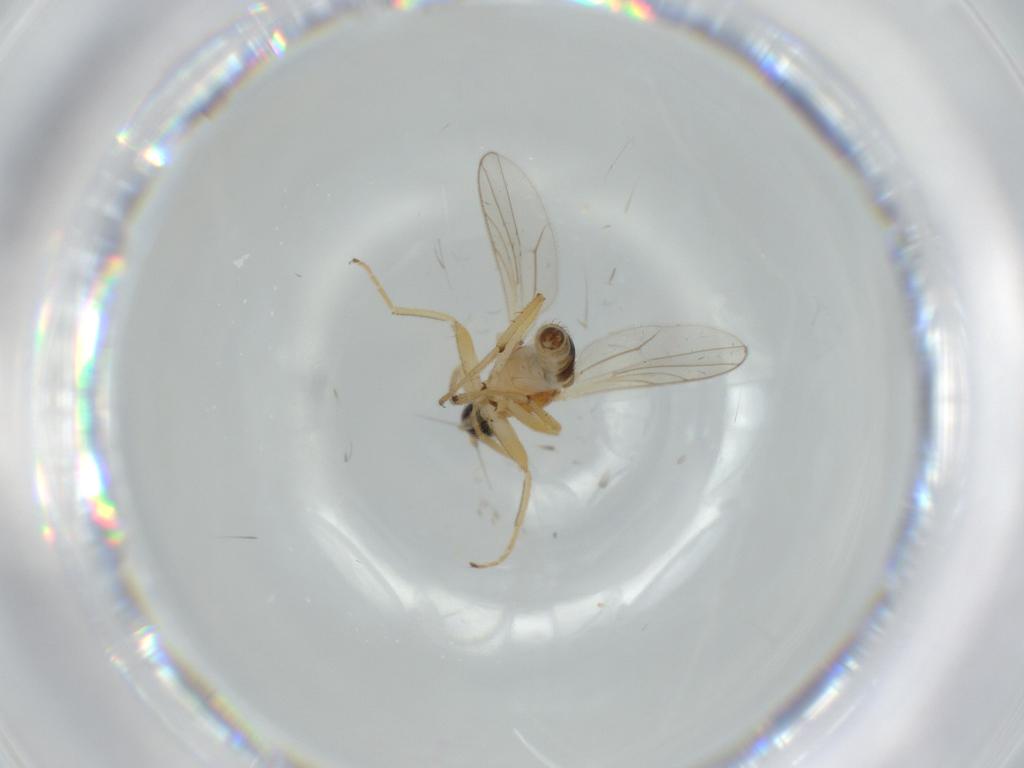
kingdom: Animalia
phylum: Arthropoda
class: Insecta
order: Diptera
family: Hybotidae
